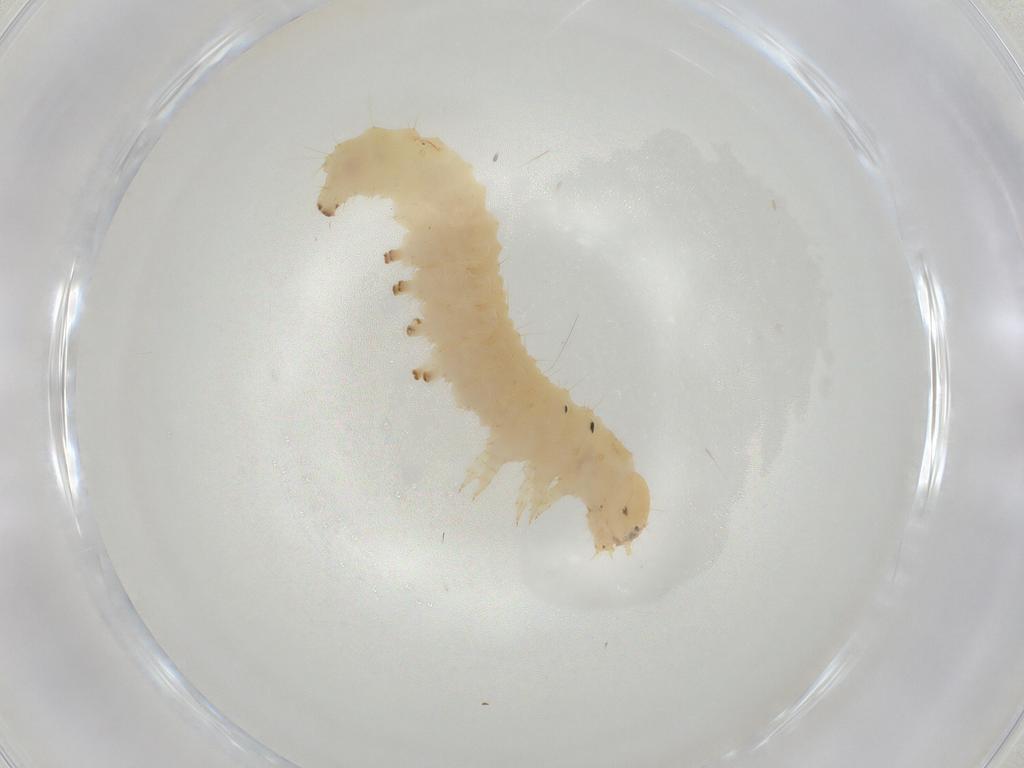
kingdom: Animalia
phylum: Arthropoda
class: Insecta
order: Lepidoptera
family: Crambidae
